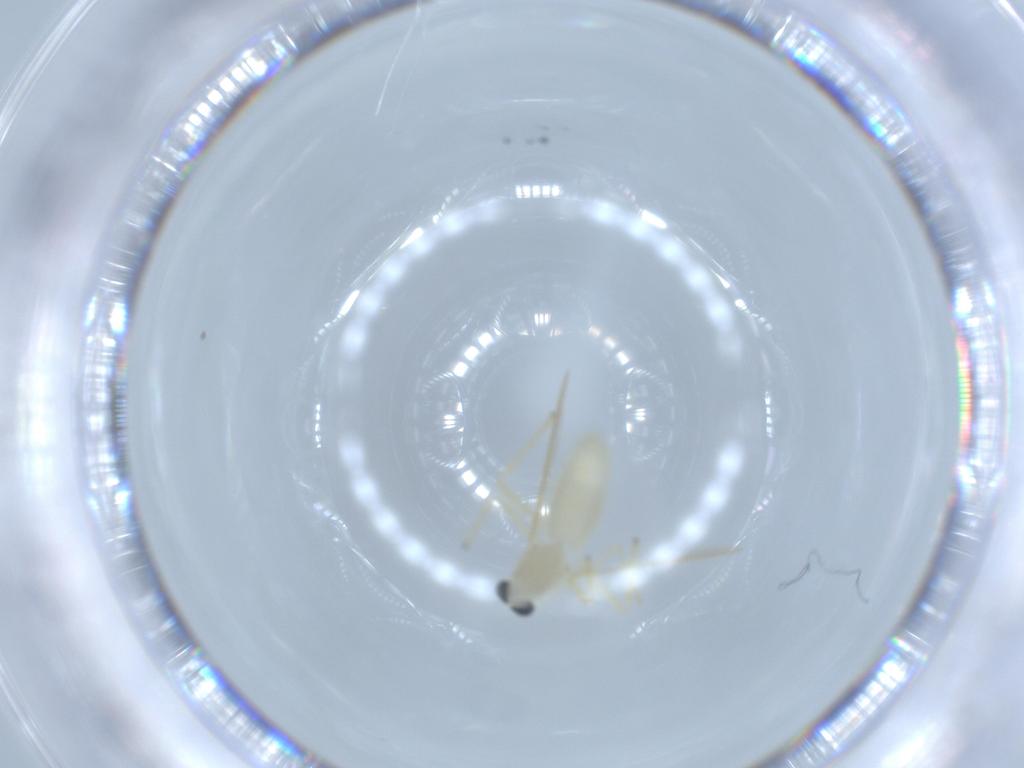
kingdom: Animalia
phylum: Arthropoda
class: Insecta
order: Diptera
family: Chironomidae
